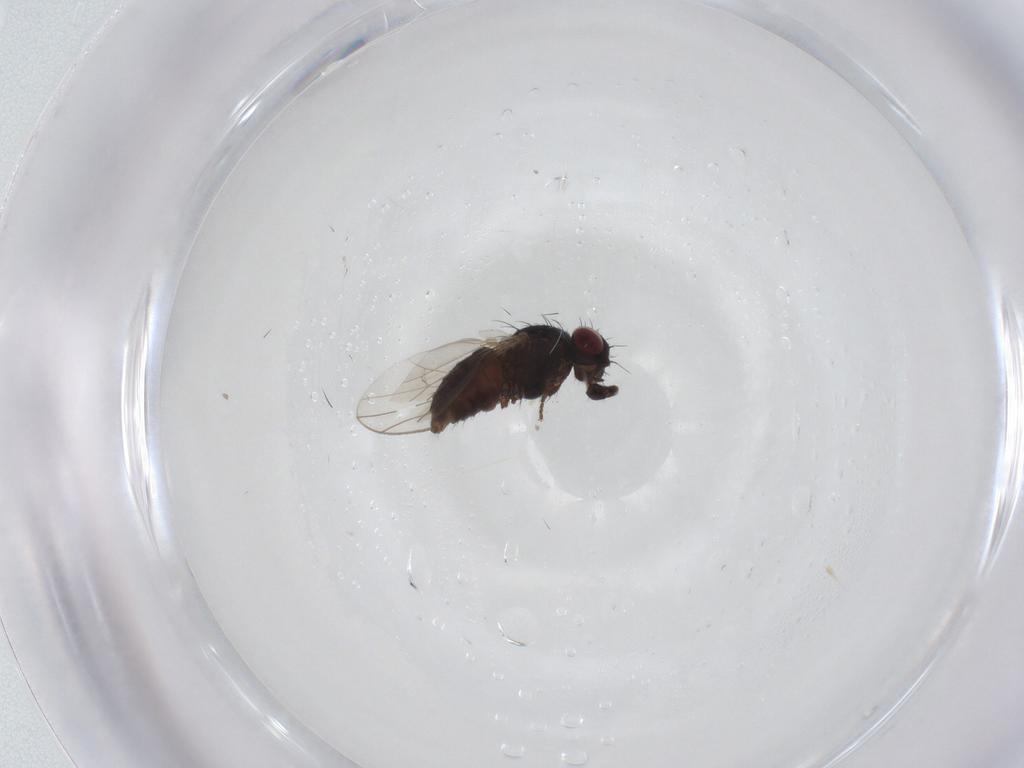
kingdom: Animalia
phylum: Arthropoda
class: Insecta
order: Diptera
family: Carnidae
